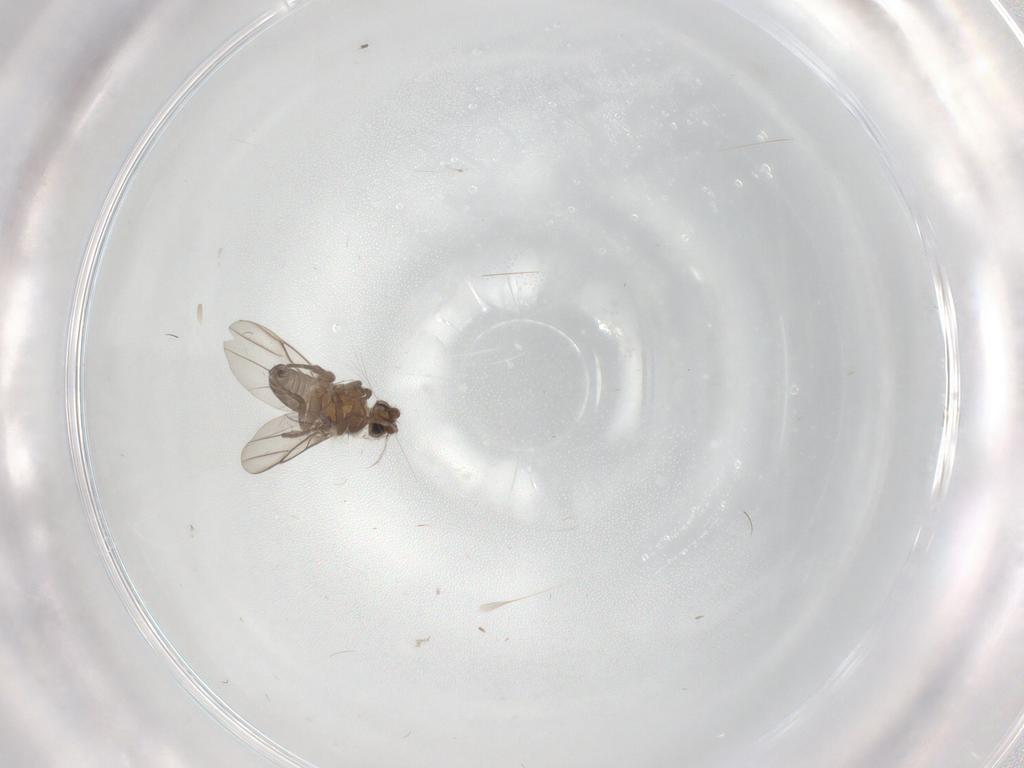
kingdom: Animalia
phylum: Arthropoda
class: Insecta
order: Diptera
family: Sciaridae
